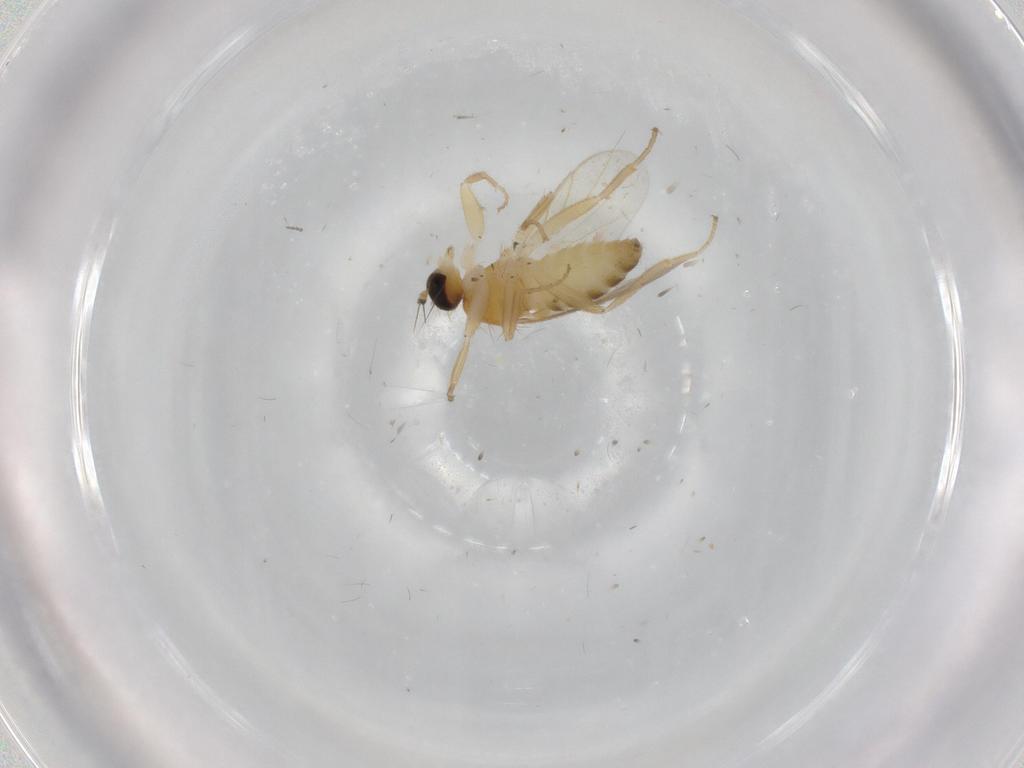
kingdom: Animalia
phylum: Arthropoda
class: Insecta
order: Diptera
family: Hybotidae
